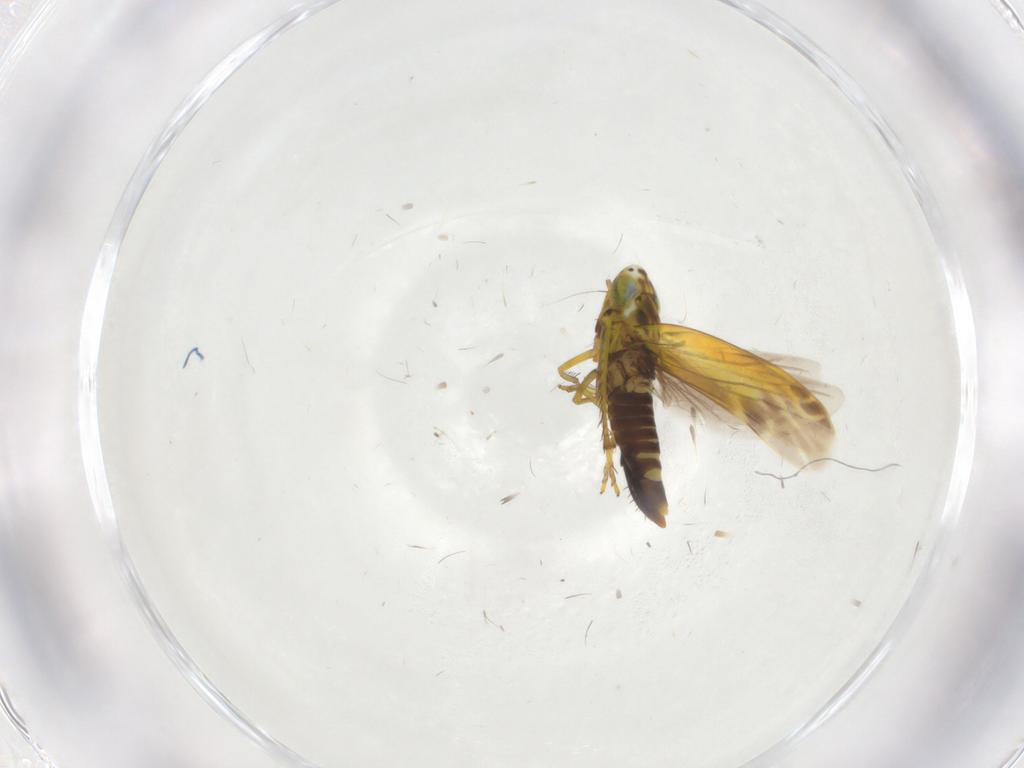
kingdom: Animalia
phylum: Arthropoda
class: Insecta
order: Hemiptera
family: Cicadellidae
